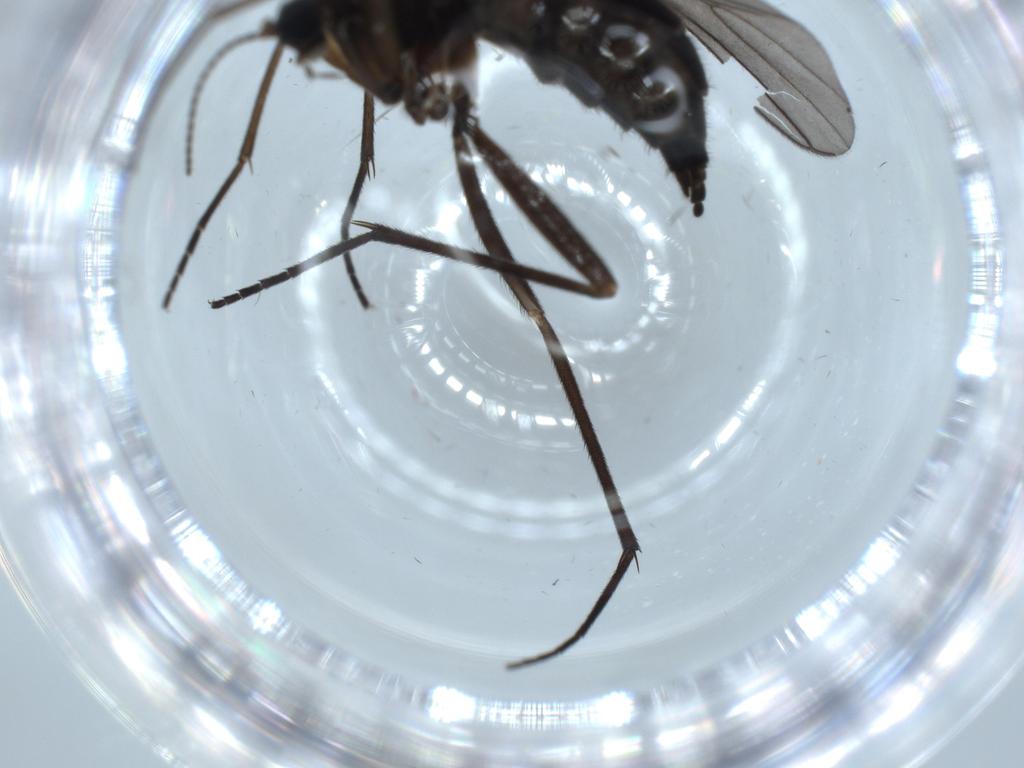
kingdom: Animalia
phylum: Arthropoda
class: Insecta
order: Diptera
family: Sciaridae
